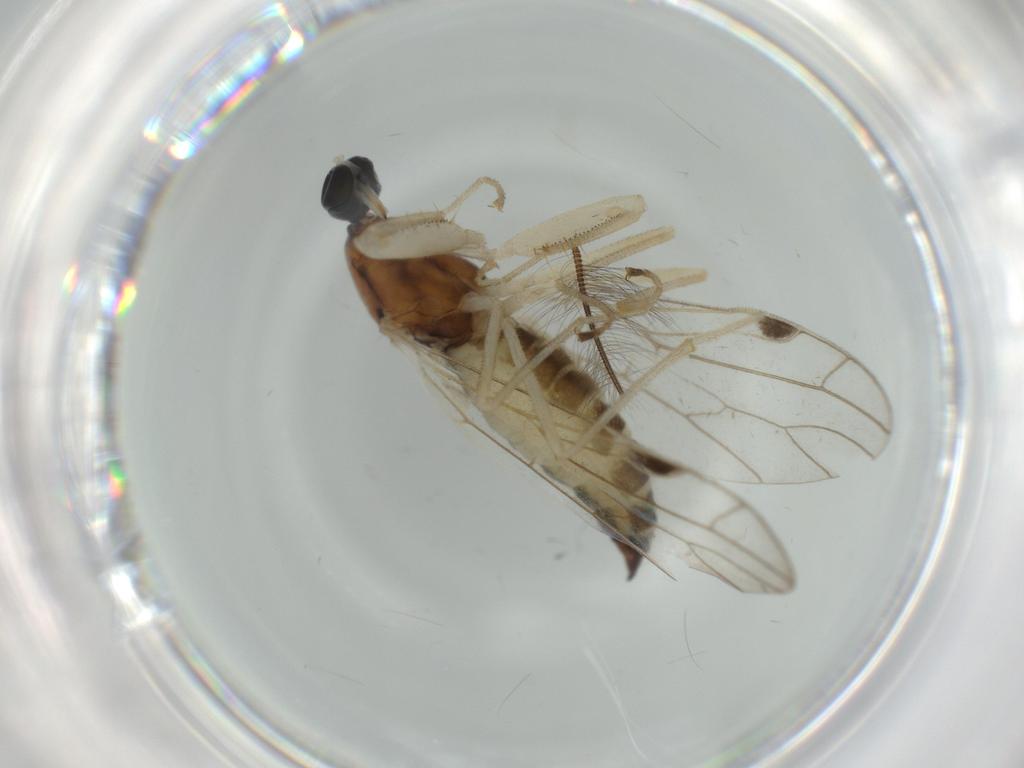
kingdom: Animalia
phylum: Arthropoda
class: Insecta
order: Diptera
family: Empididae
